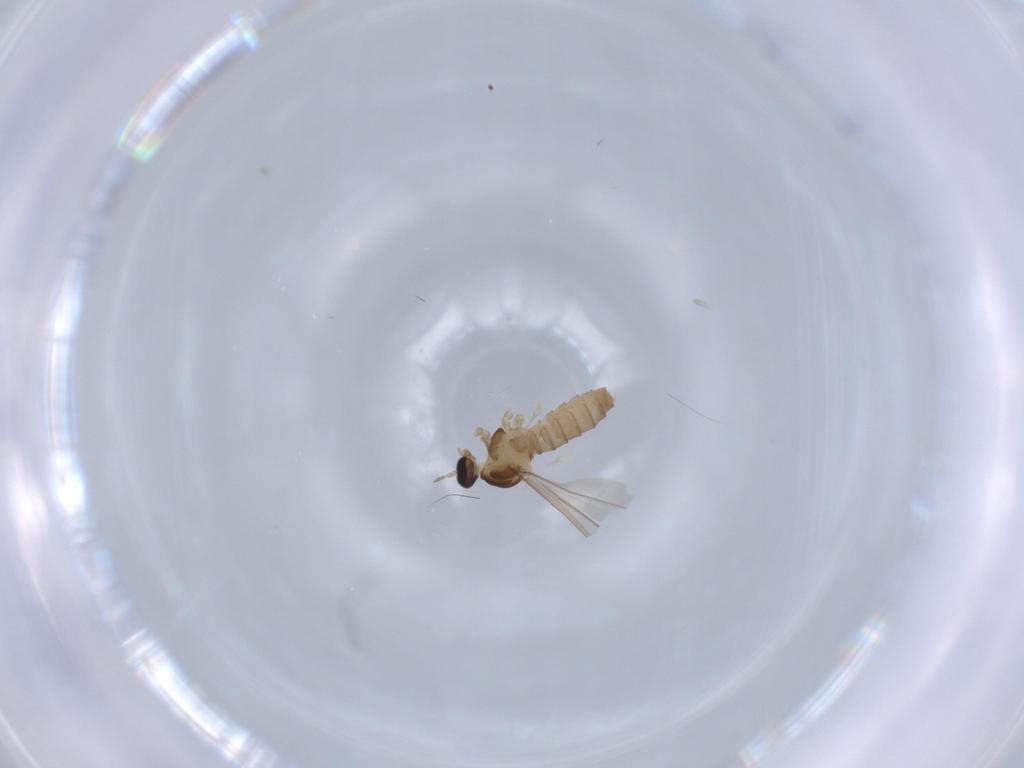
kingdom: Animalia
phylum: Arthropoda
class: Insecta
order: Diptera
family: Cecidomyiidae
